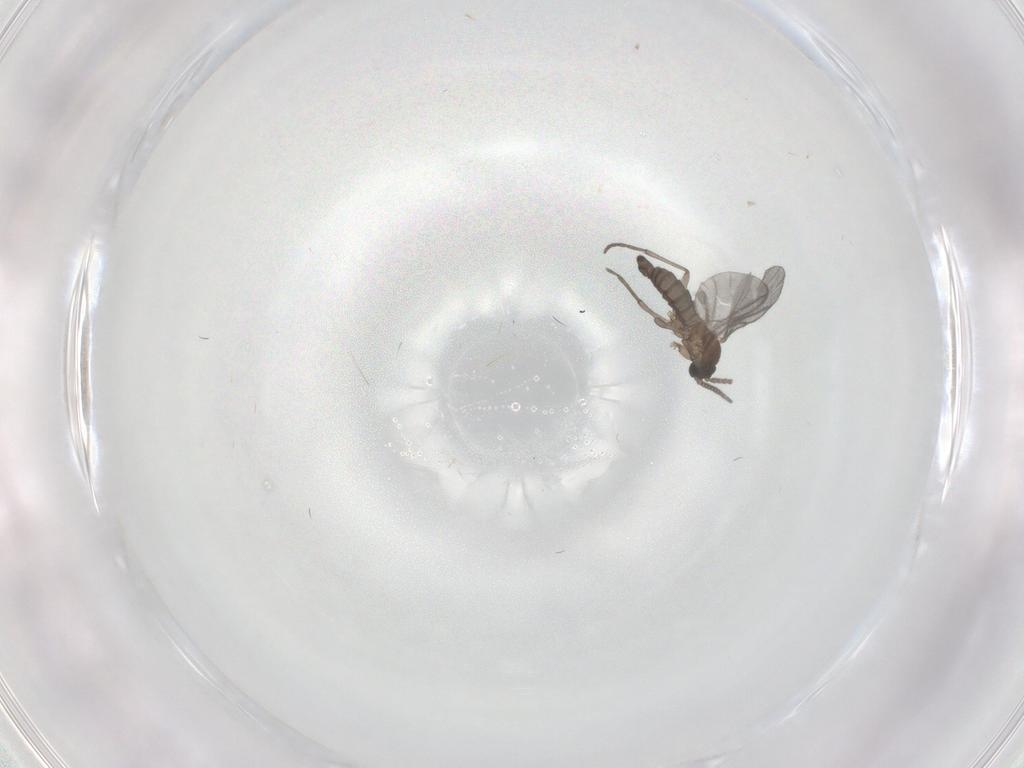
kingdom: Animalia
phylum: Arthropoda
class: Insecta
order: Diptera
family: Sciaridae
